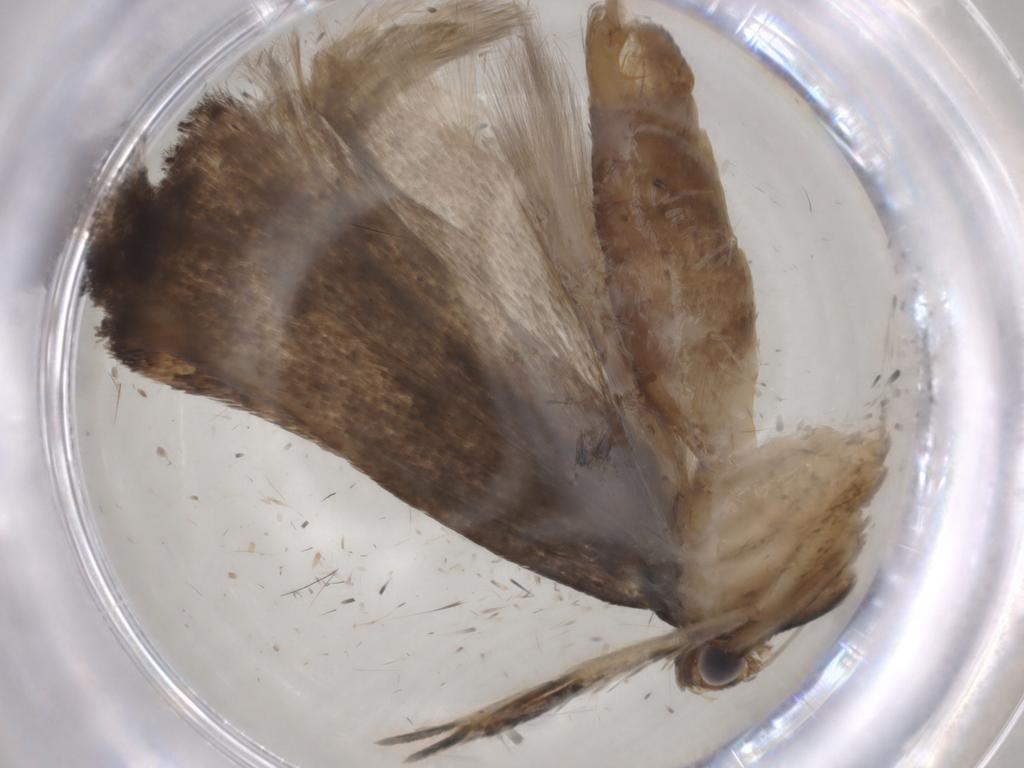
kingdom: Animalia
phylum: Arthropoda
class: Insecta
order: Lepidoptera
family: Gelechiidae
